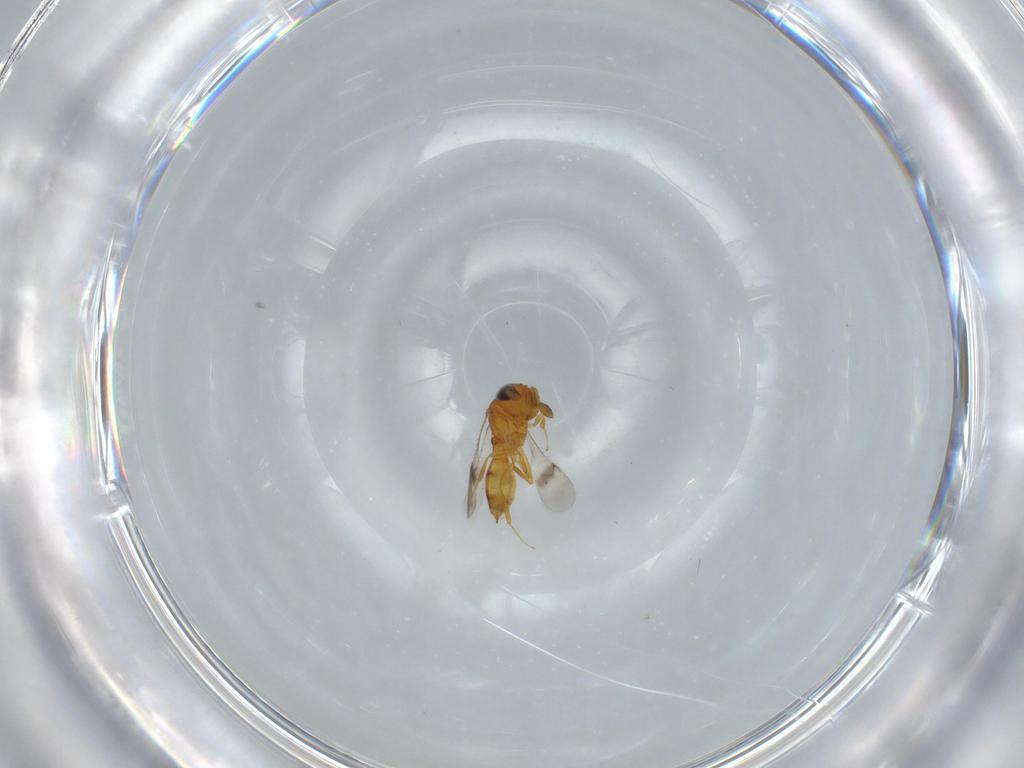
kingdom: Animalia
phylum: Arthropoda
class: Insecta
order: Hymenoptera
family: Scelionidae
